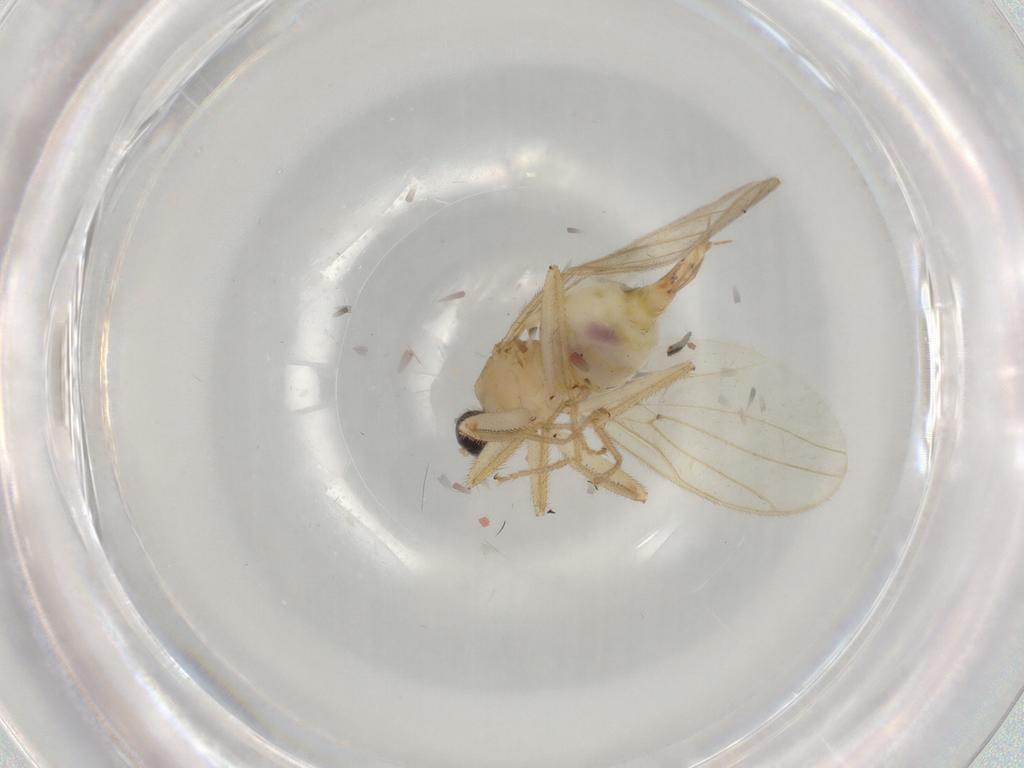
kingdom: Animalia
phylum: Arthropoda
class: Insecta
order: Diptera
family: Hybotidae
